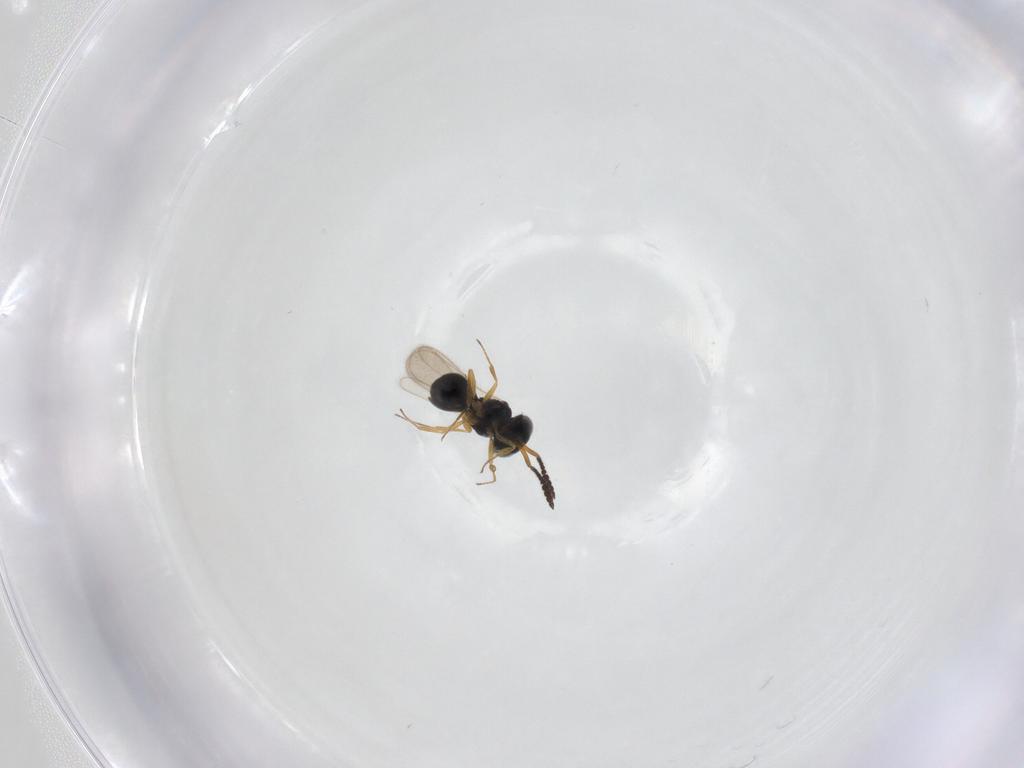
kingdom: Animalia
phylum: Arthropoda
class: Insecta
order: Hymenoptera
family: Scelionidae
